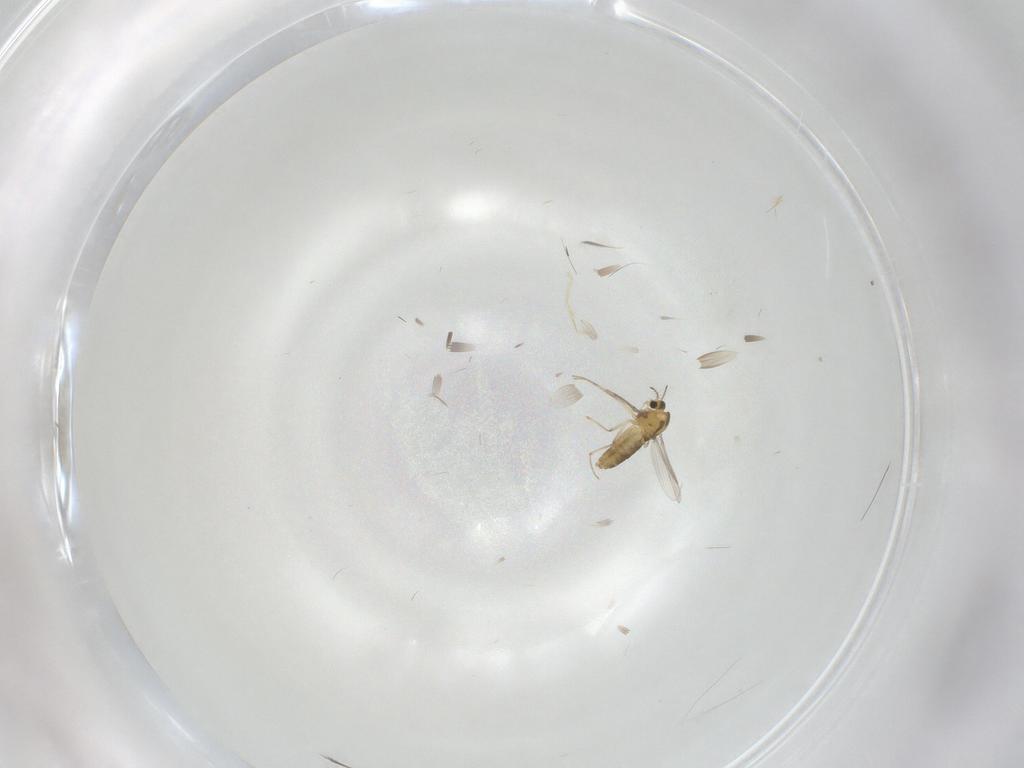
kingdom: Animalia
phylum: Arthropoda
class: Insecta
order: Diptera
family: Chironomidae
